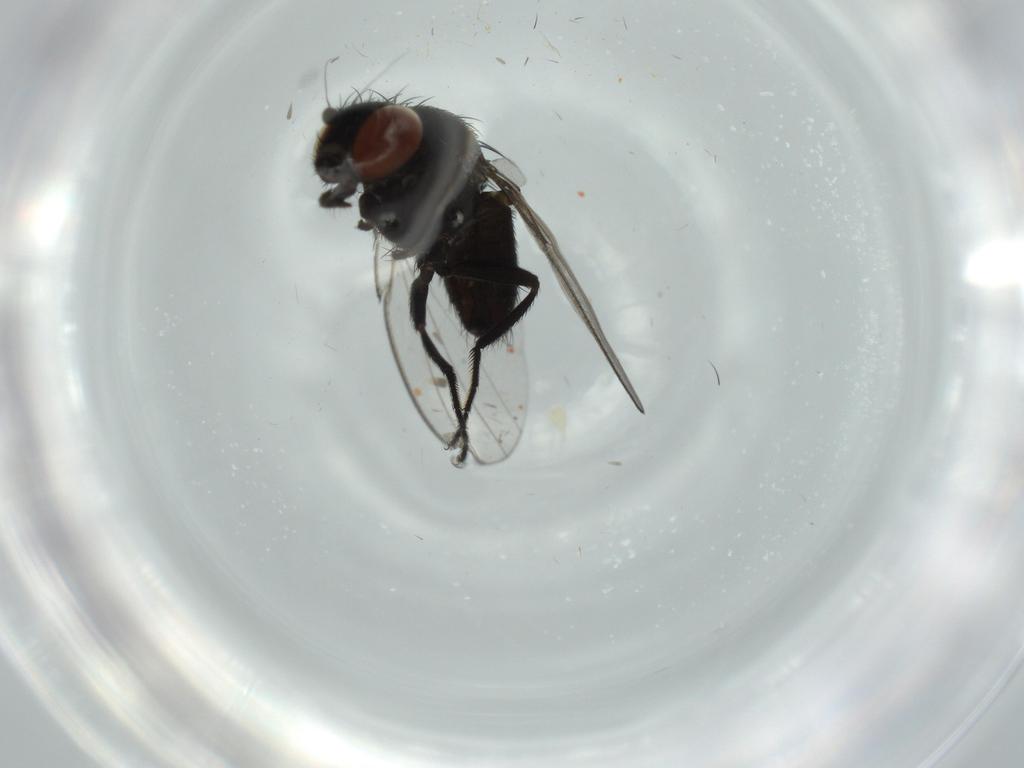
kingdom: Animalia
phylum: Arthropoda
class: Insecta
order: Diptera
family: Milichiidae
